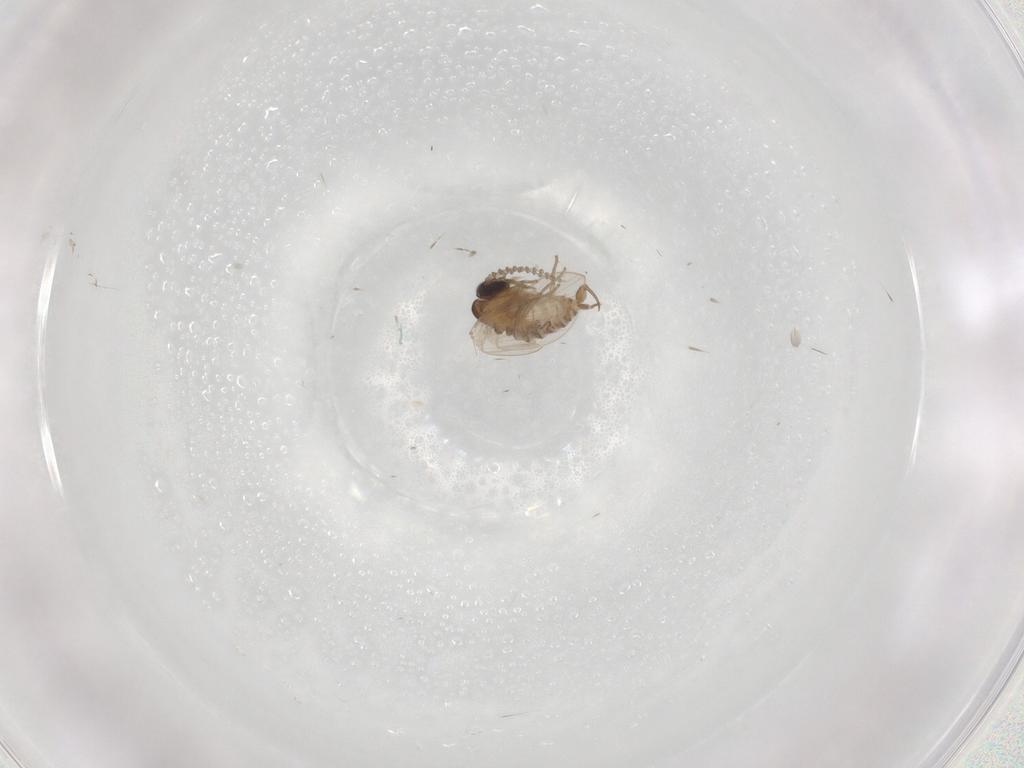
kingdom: Animalia
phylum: Arthropoda
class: Insecta
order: Diptera
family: Psychodidae
